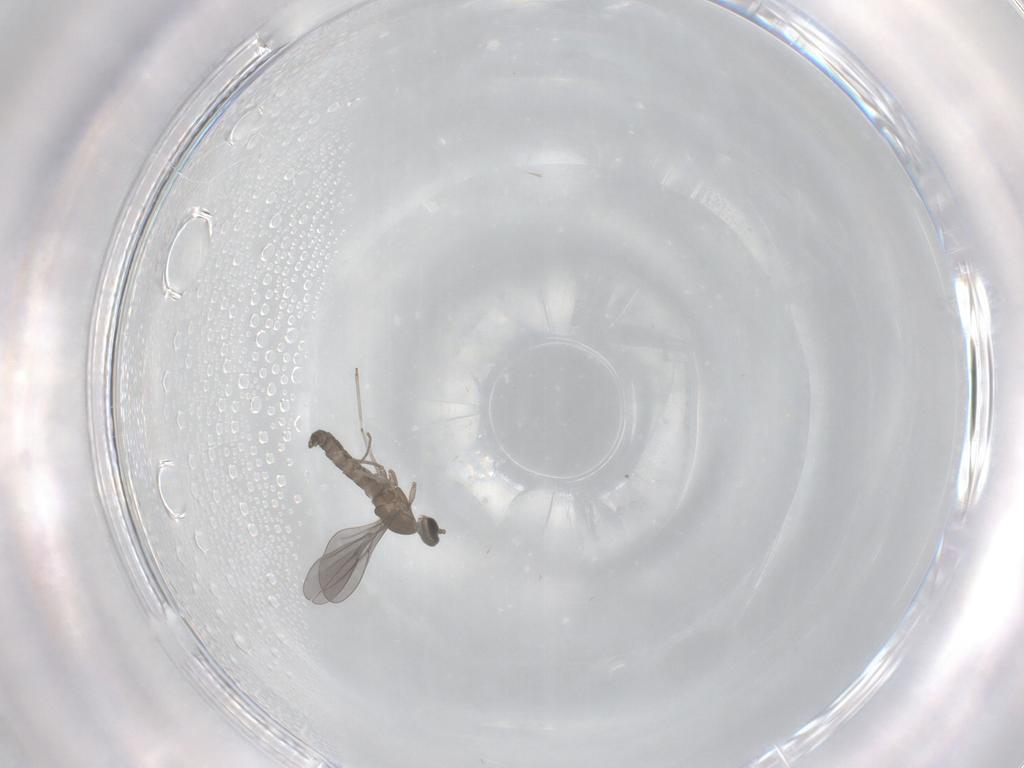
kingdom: Animalia
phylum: Arthropoda
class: Insecta
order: Diptera
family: Cecidomyiidae
